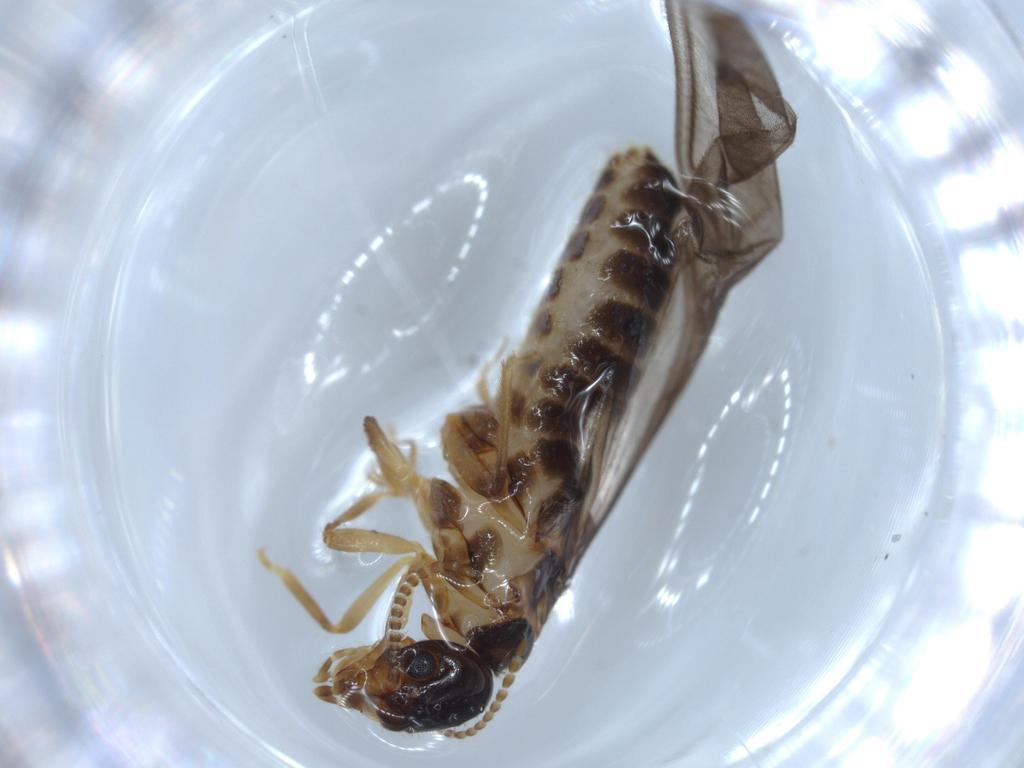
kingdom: Animalia
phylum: Arthropoda
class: Insecta
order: Blattodea
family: Termitidae
